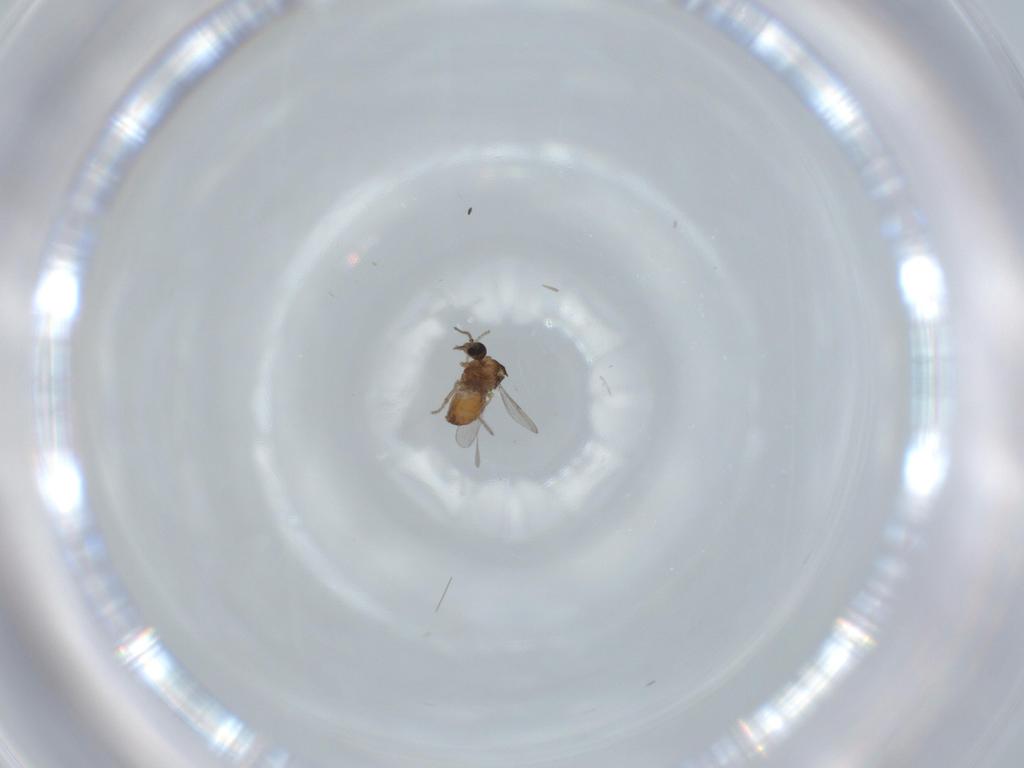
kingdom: Animalia
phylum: Arthropoda
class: Insecta
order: Diptera
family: Ceratopogonidae
